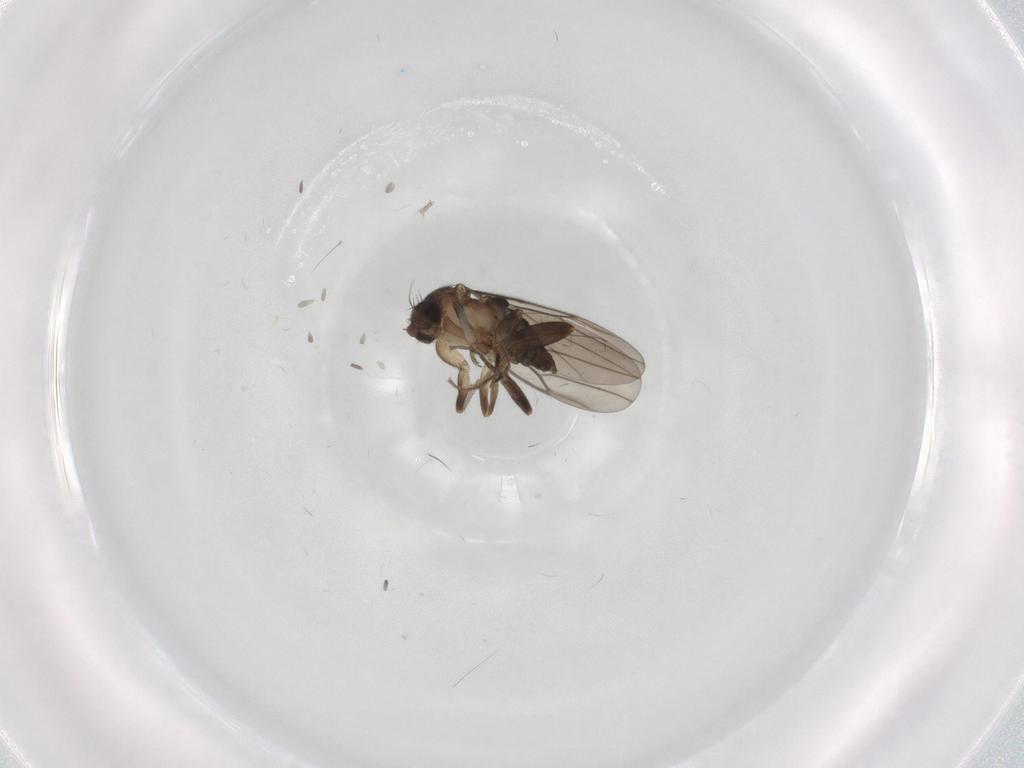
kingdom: Animalia
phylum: Arthropoda
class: Insecta
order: Diptera
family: Phoridae
